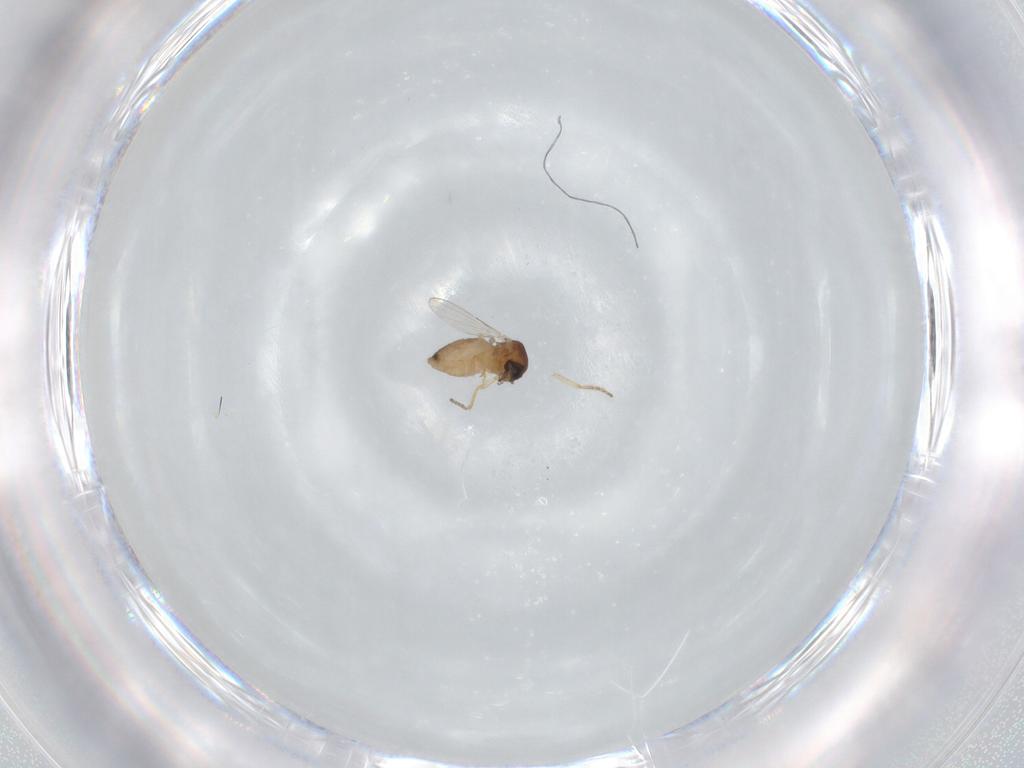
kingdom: Animalia
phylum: Arthropoda
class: Insecta
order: Diptera
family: Ceratopogonidae
